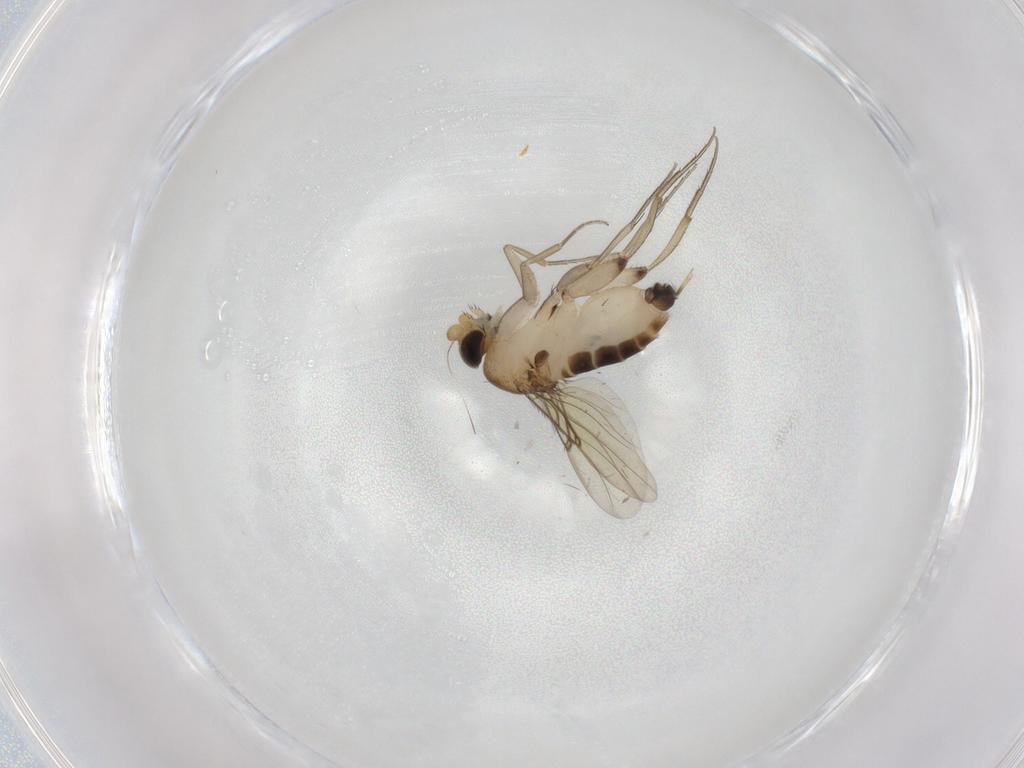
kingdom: Animalia
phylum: Arthropoda
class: Insecta
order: Diptera
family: Phoridae
